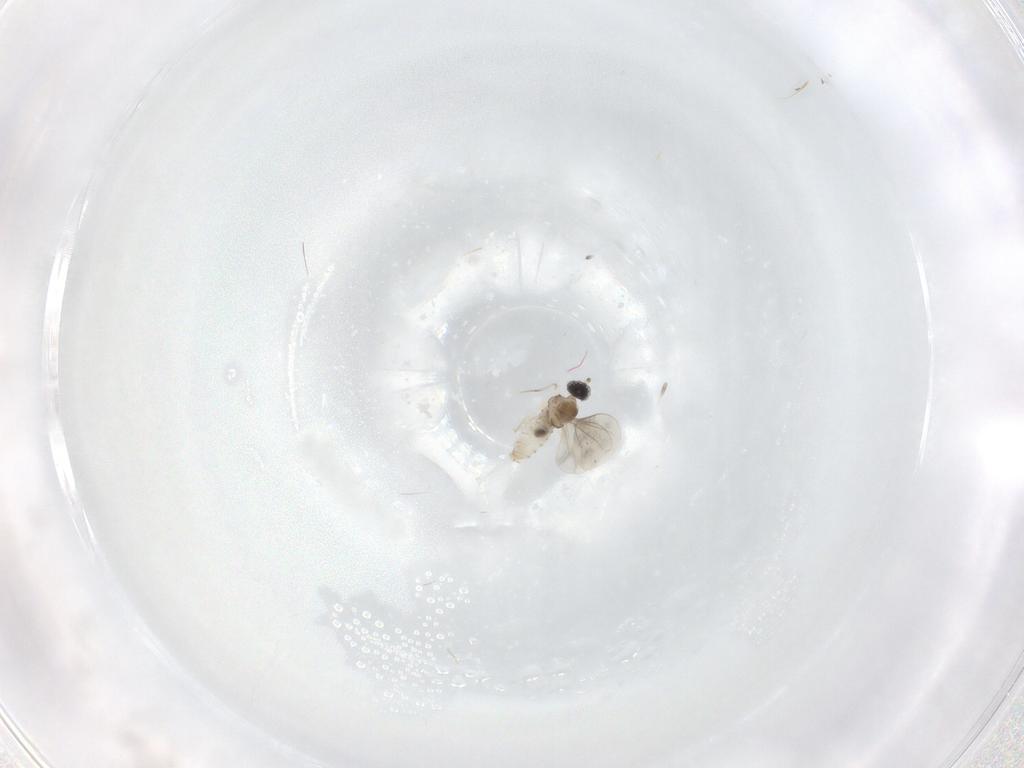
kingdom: Animalia
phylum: Arthropoda
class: Insecta
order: Diptera
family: Cecidomyiidae
